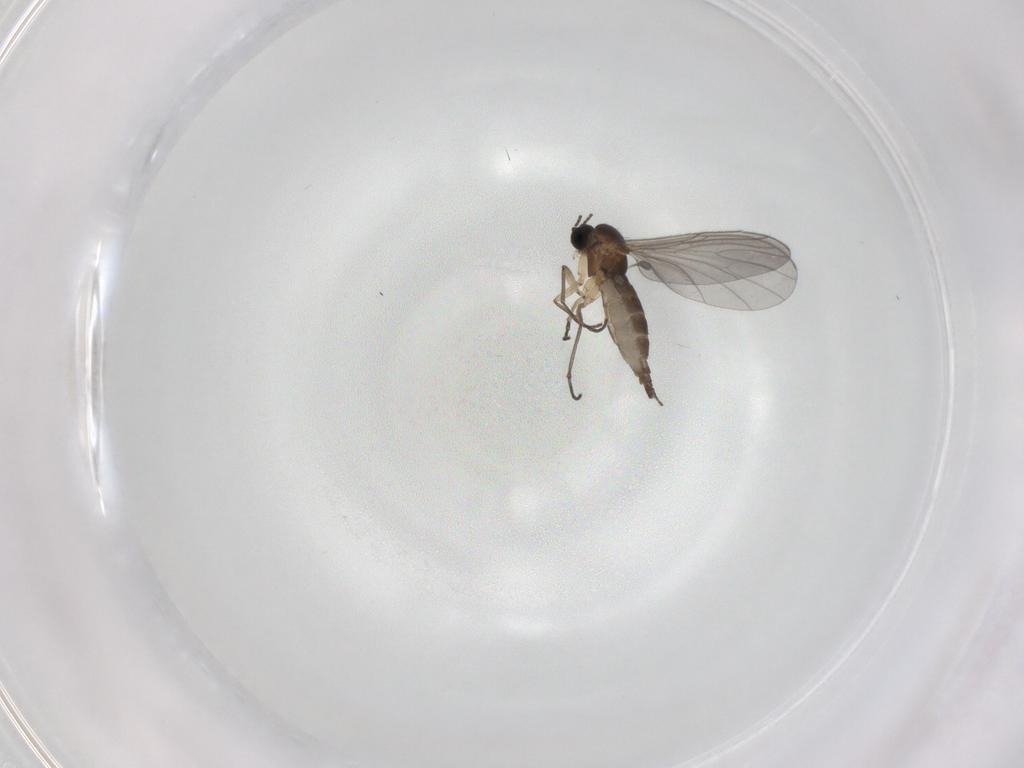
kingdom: Animalia
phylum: Arthropoda
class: Insecta
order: Diptera
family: Sciaridae
